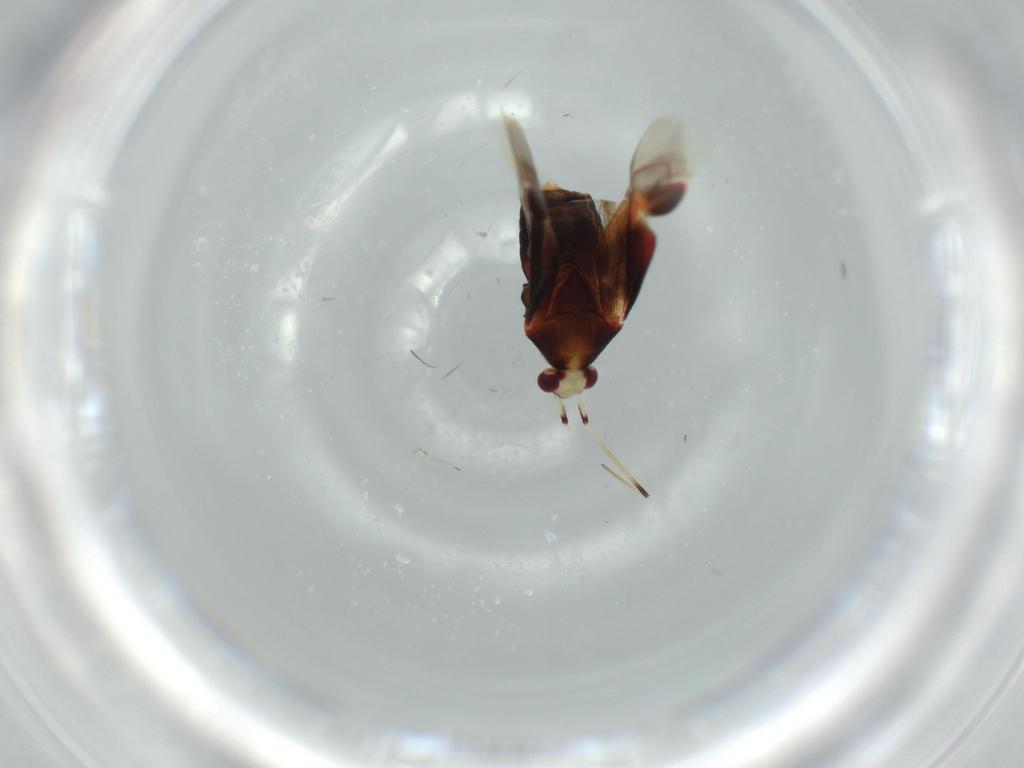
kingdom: Animalia
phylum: Arthropoda
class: Insecta
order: Hemiptera
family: Miridae
